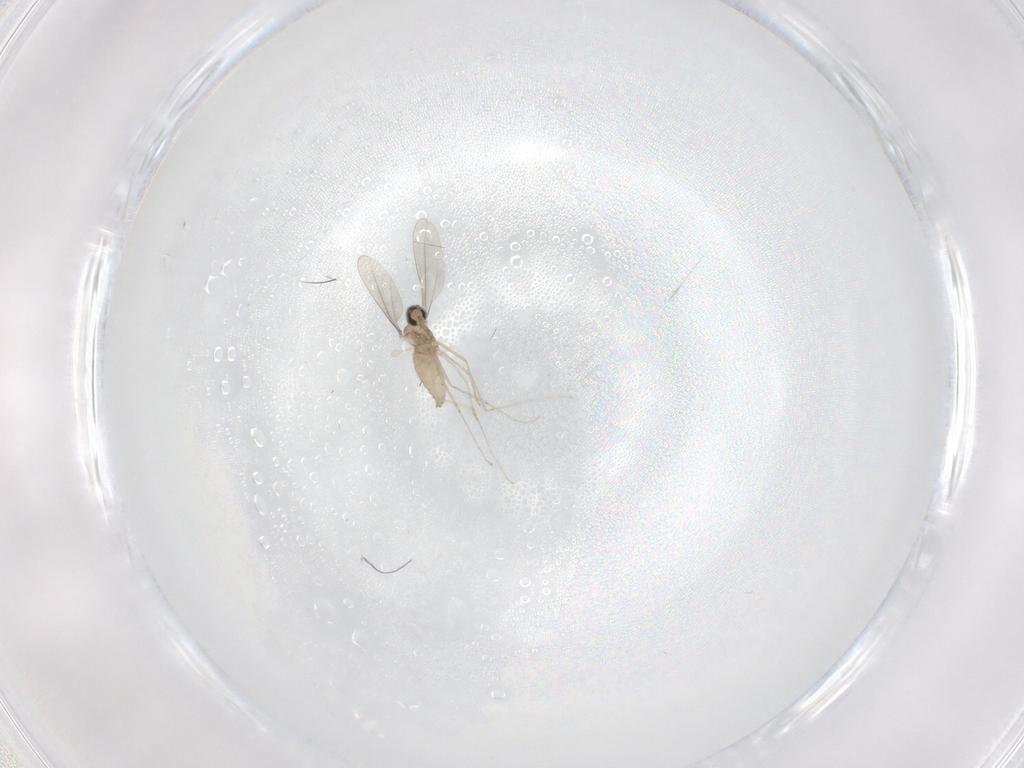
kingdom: Animalia
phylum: Arthropoda
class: Insecta
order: Diptera
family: Cecidomyiidae
